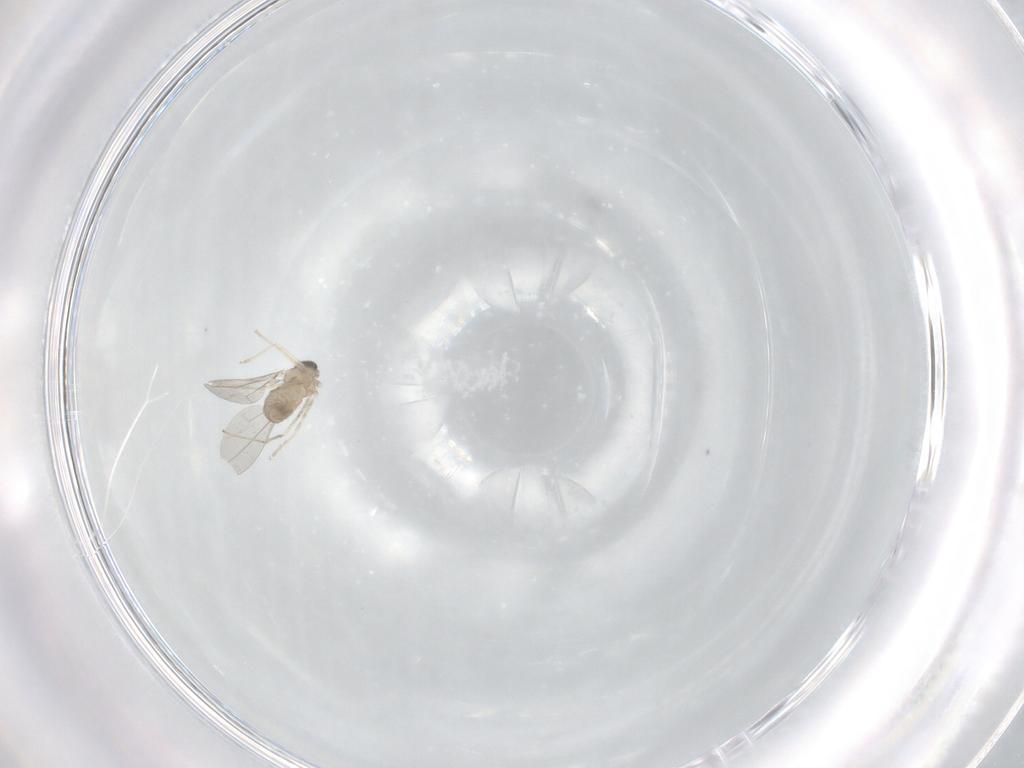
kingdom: Animalia
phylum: Arthropoda
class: Insecta
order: Diptera
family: Cecidomyiidae
